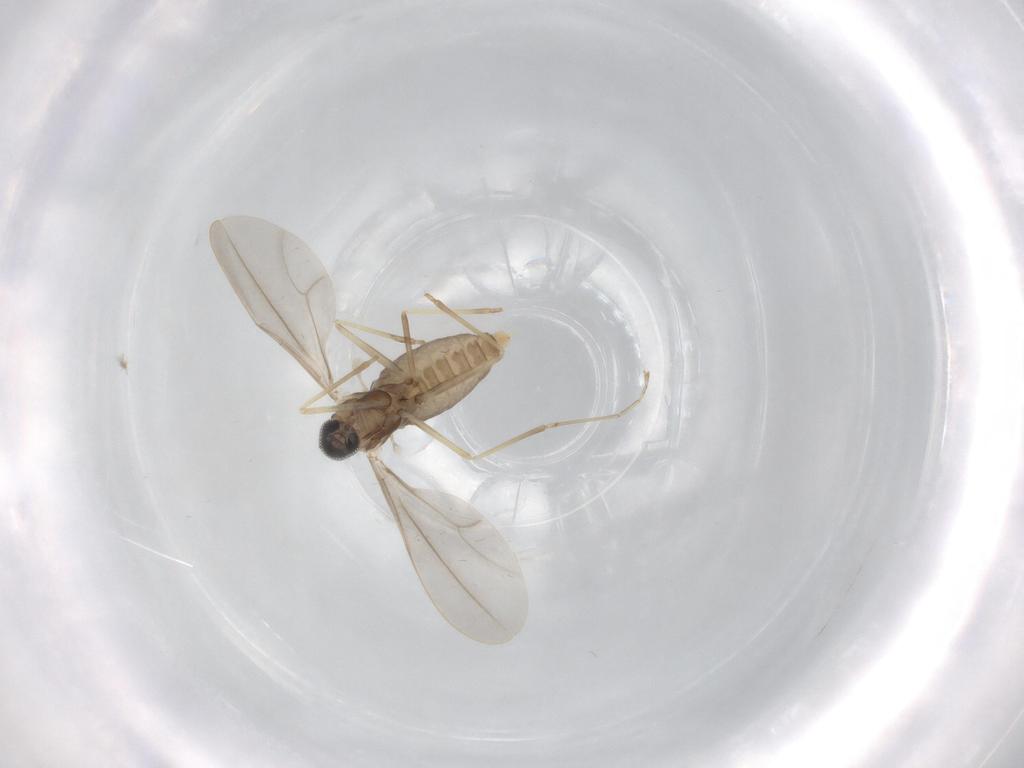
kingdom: Animalia
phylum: Arthropoda
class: Insecta
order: Diptera
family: Cecidomyiidae
